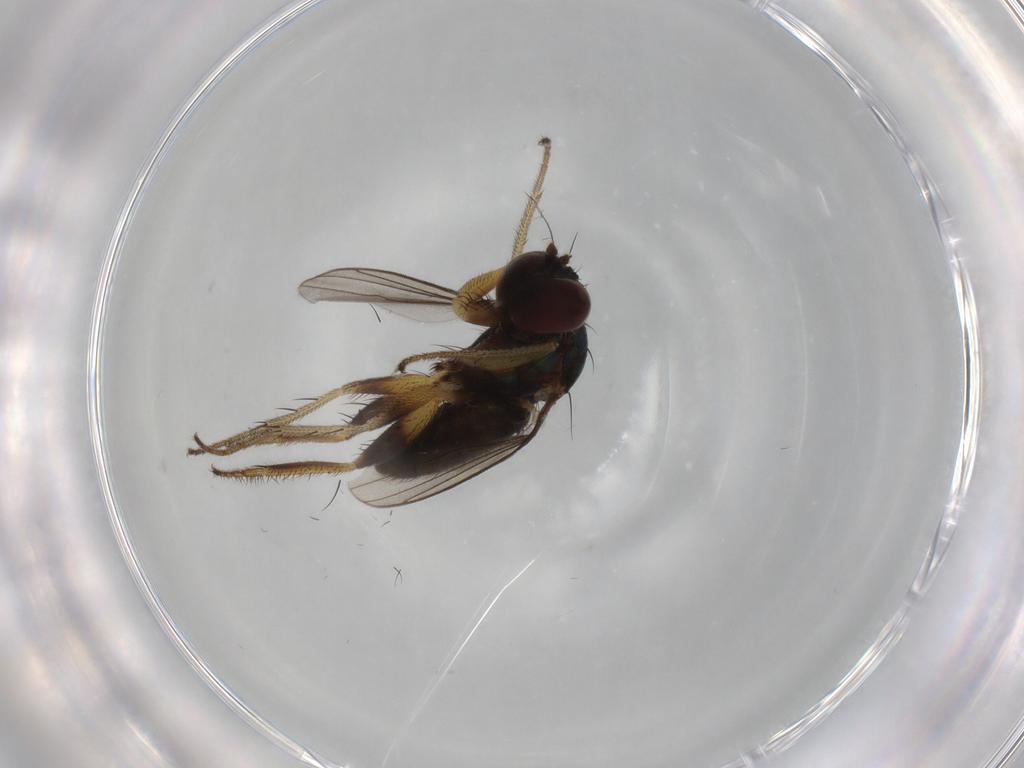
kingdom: Animalia
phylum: Arthropoda
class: Insecta
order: Diptera
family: Dolichopodidae
